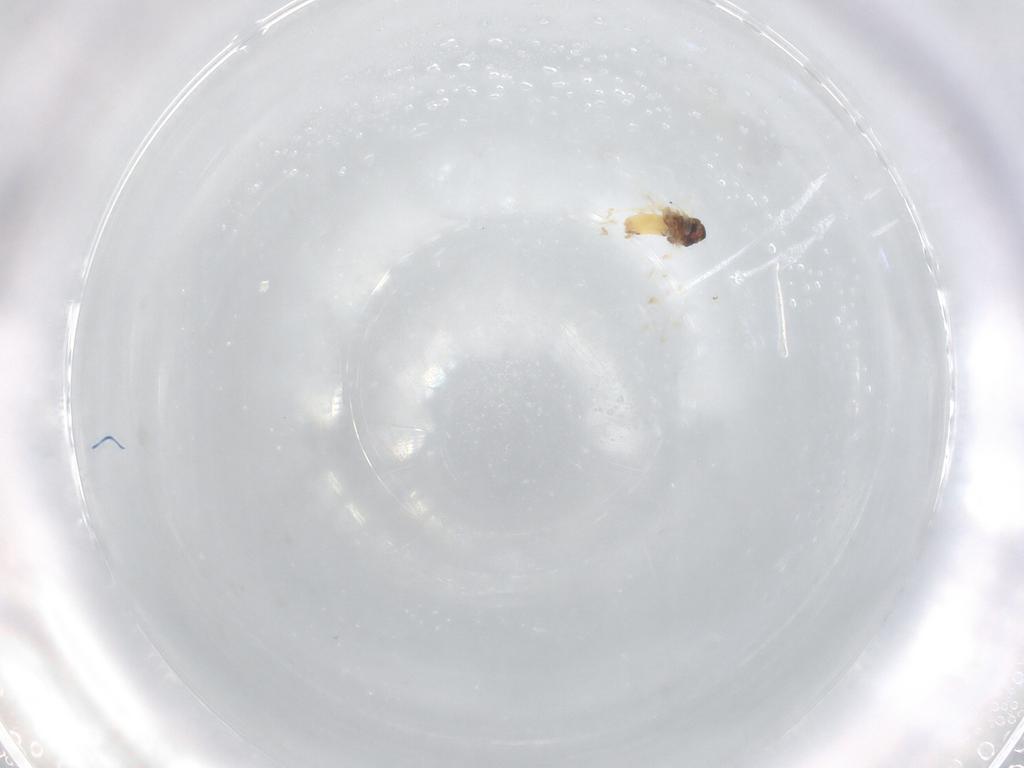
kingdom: Animalia
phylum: Arthropoda
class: Insecta
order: Hemiptera
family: Aleyrodidae
